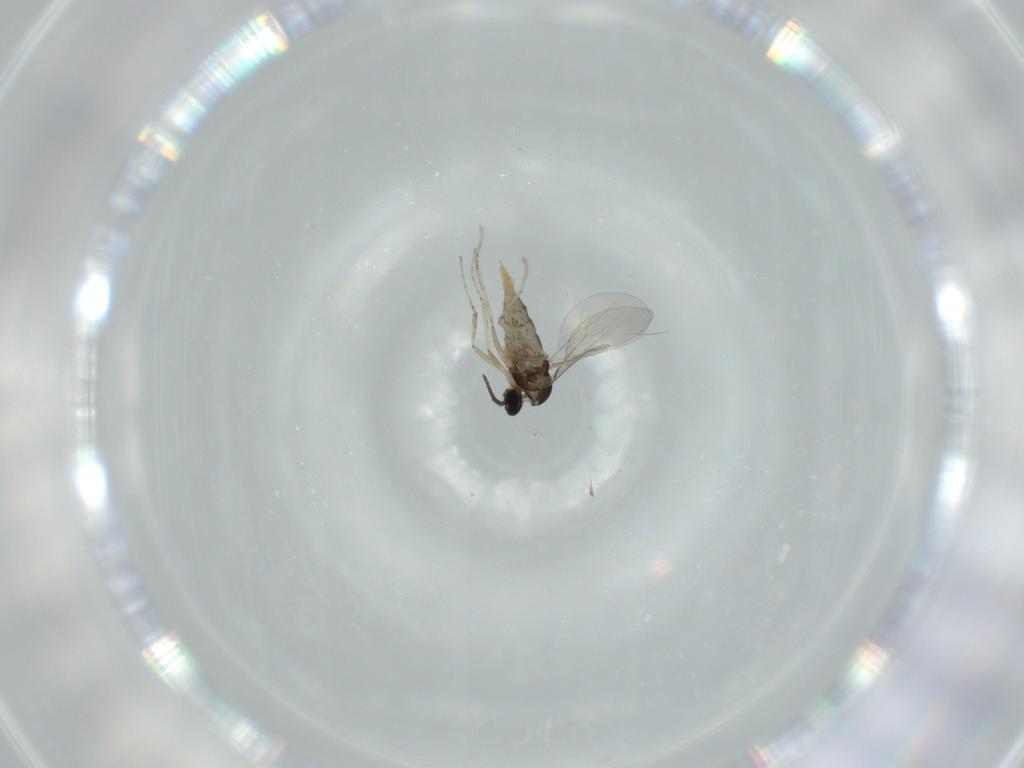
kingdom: Animalia
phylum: Arthropoda
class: Insecta
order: Diptera
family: Cecidomyiidae
